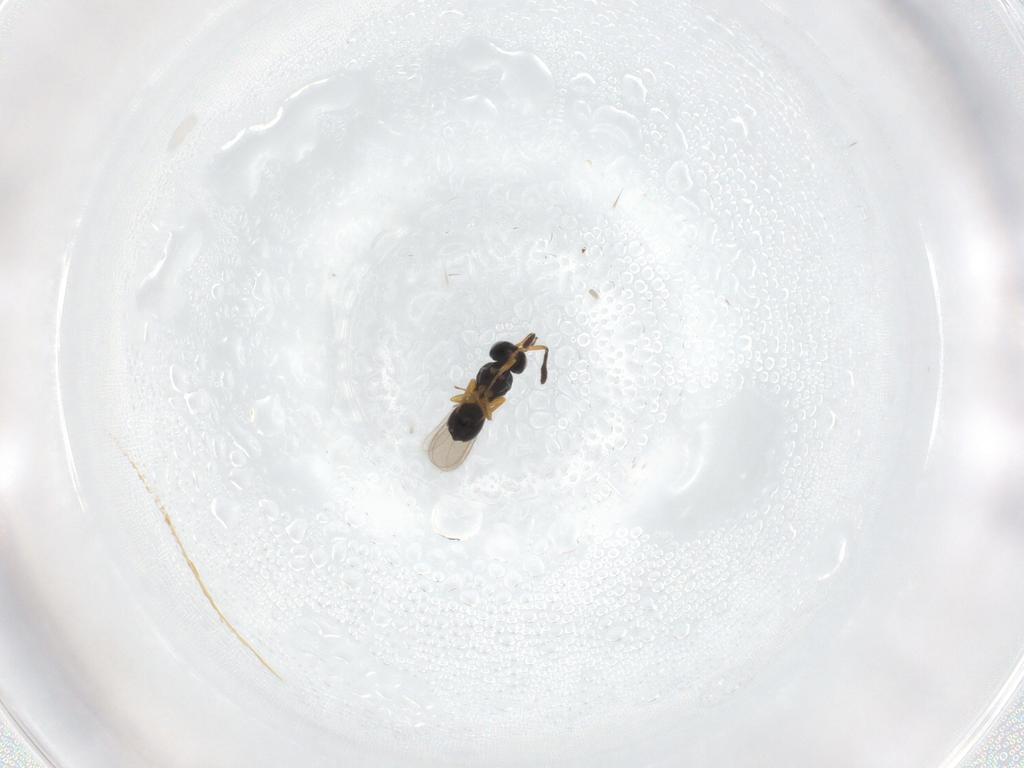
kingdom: Animalia
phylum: Arthropoda
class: Insecta
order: Hymenoptera
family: Scelionidae
